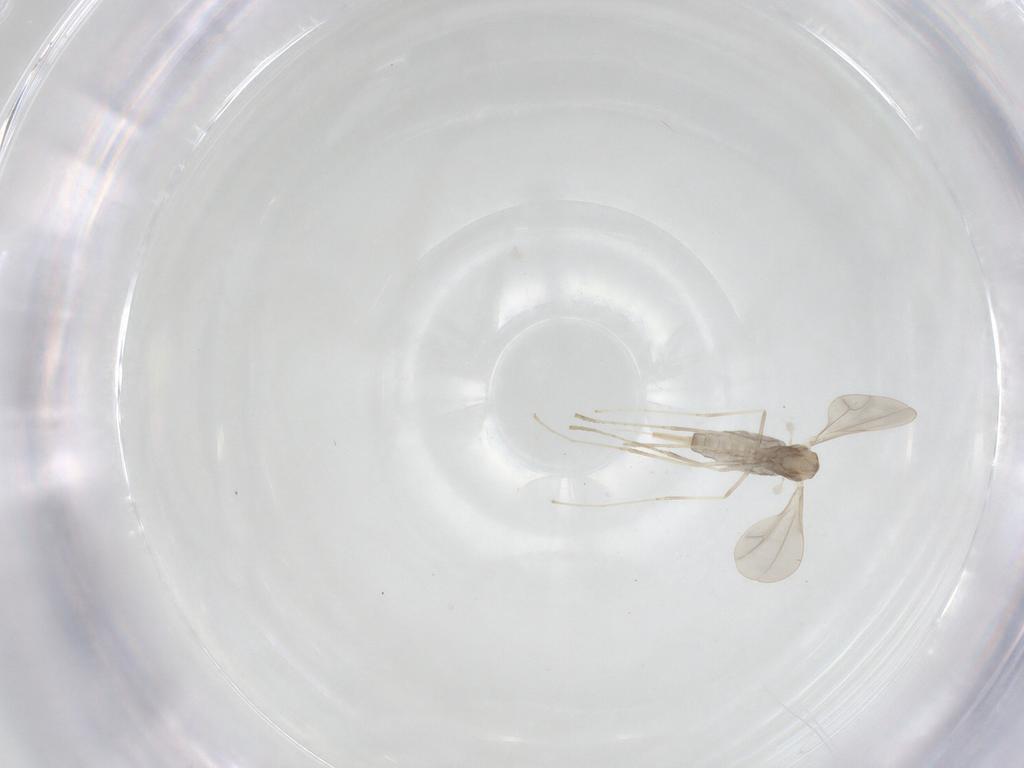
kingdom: Animalia
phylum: Arthropoda
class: Insecta
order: Diptera
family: Cecidomyiidae
